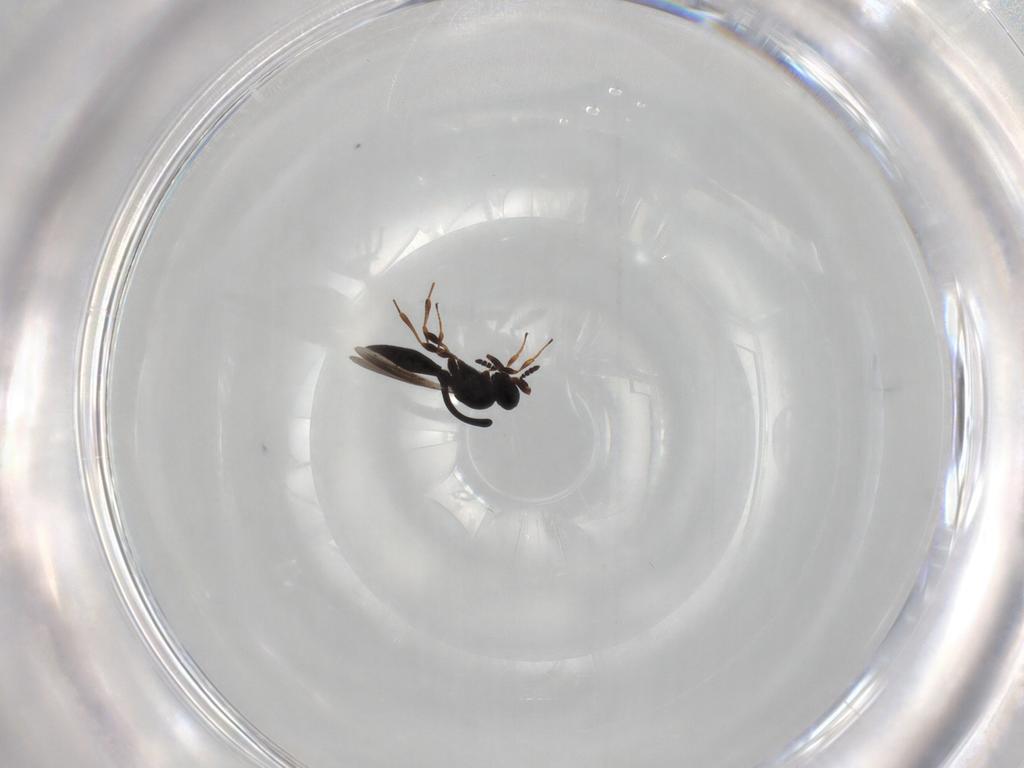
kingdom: Animalia
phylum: Arthropoda
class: Insecta
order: Hymenoptera
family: Platygastridae
